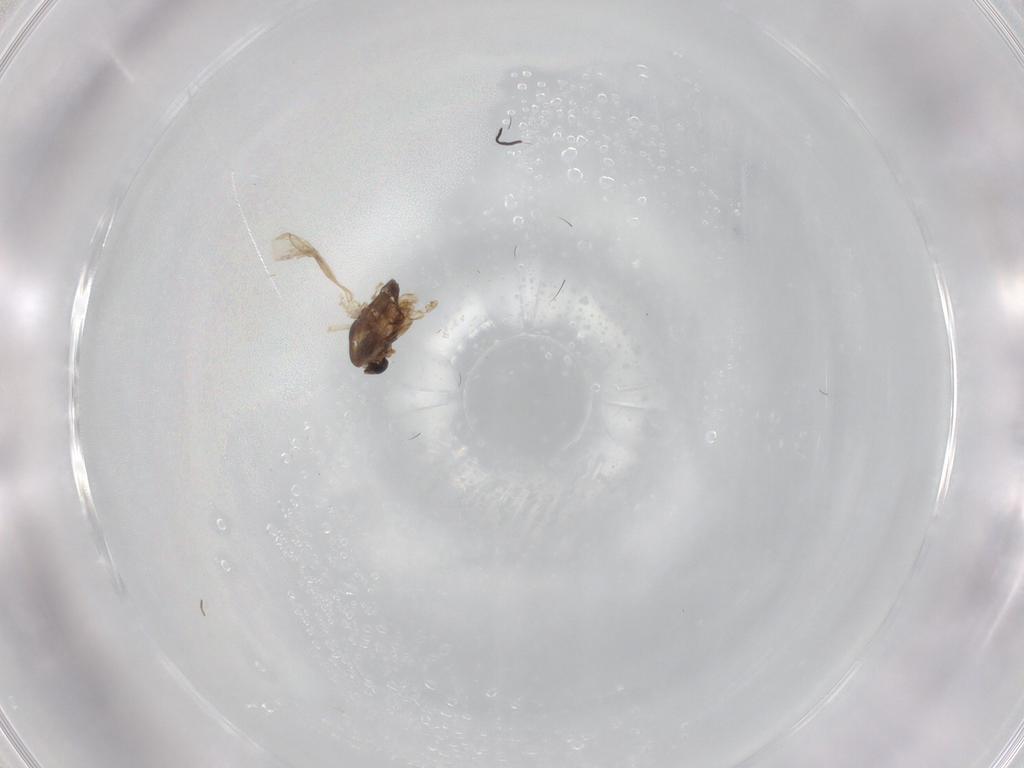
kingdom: Animalia
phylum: Arthropoda
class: Insecta
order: Diptera
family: Chironomidae
